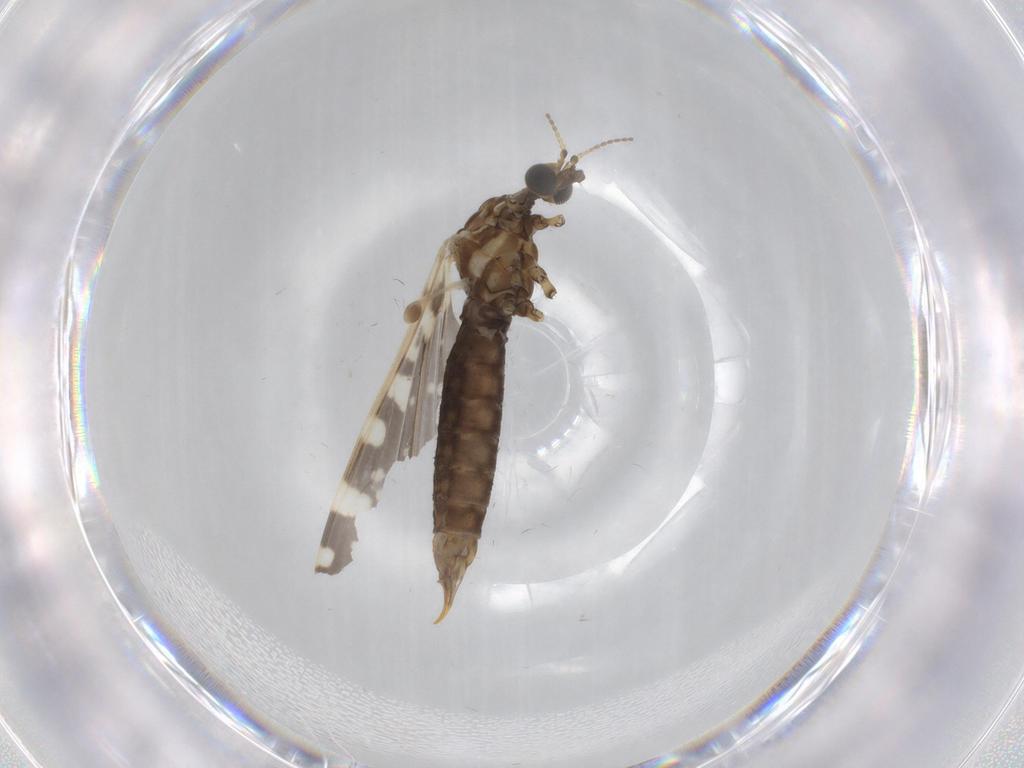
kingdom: Animalia
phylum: Arthropoda
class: Insecta
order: Diptera
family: Limoniidae
